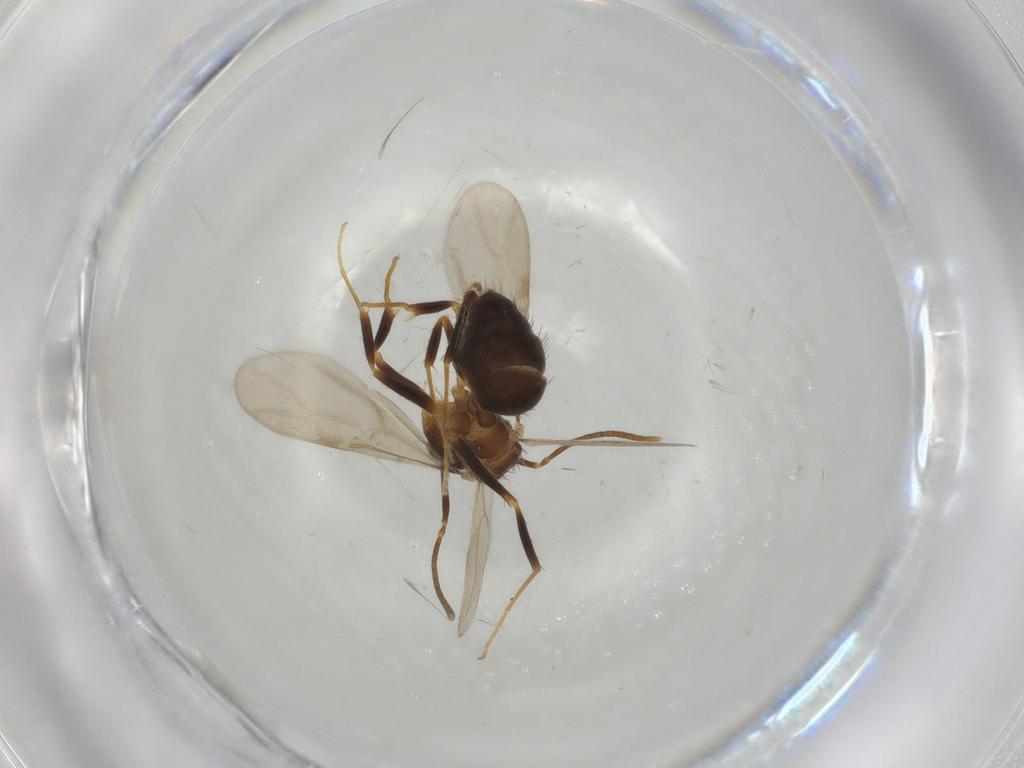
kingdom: Animalia
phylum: Arthropoda
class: Insecta
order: Hymenoptera
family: Formicidae
